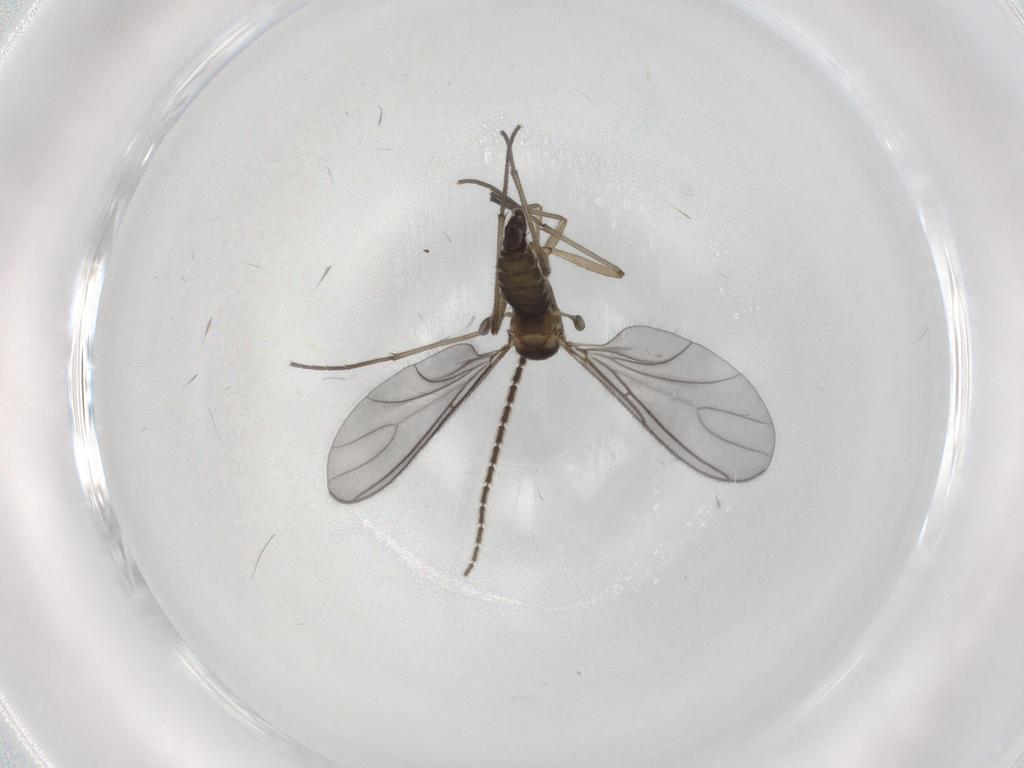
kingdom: Animalia
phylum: Arthropoda
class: Insecta
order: Diptera
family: Sciaridae
